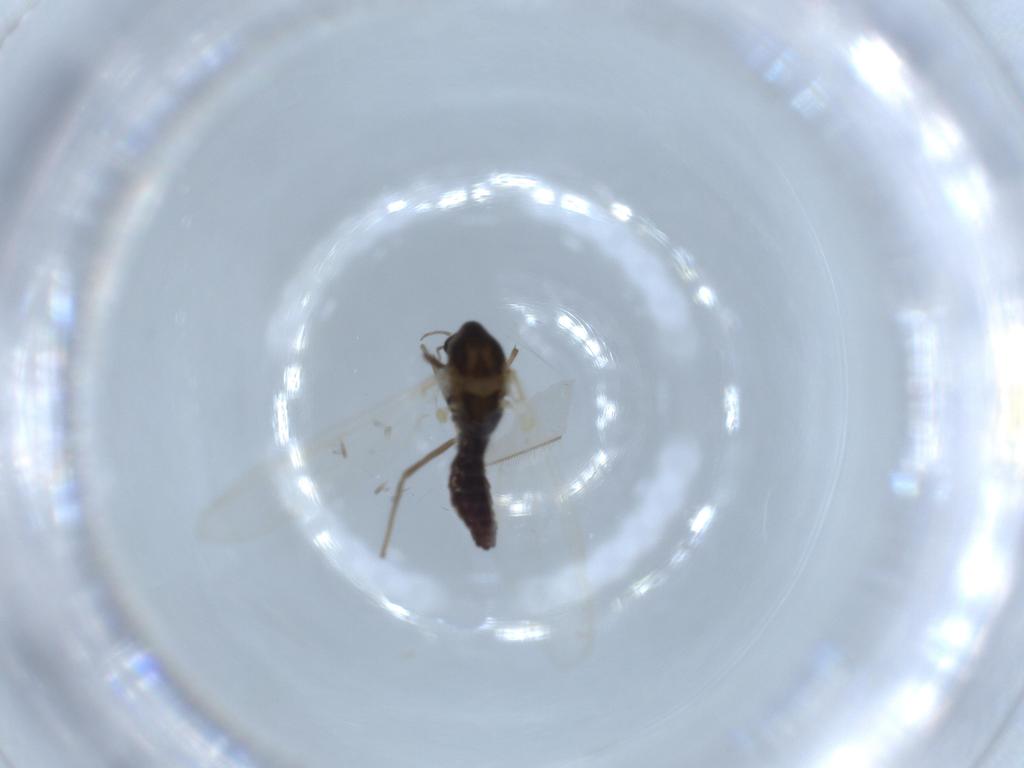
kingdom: Animalia
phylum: Arthropoda
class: Insecta
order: Diptera
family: Chironomidae
